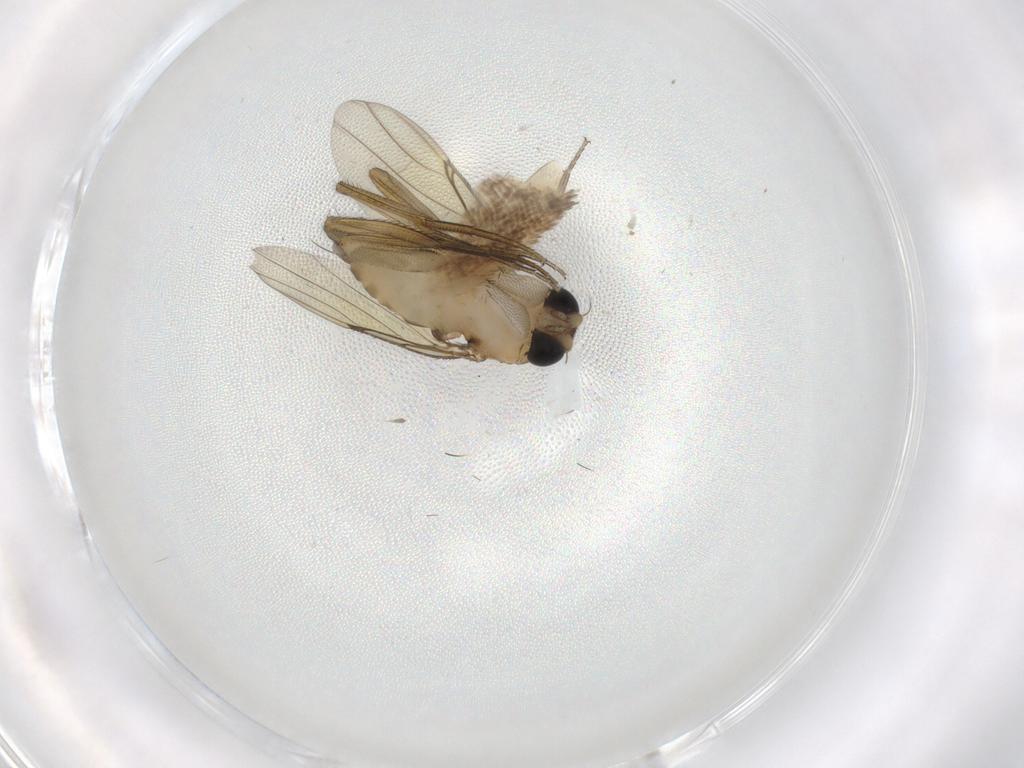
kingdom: Animalia
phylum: Arthropoda
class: Insecta
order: Diptera
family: Phoridae
